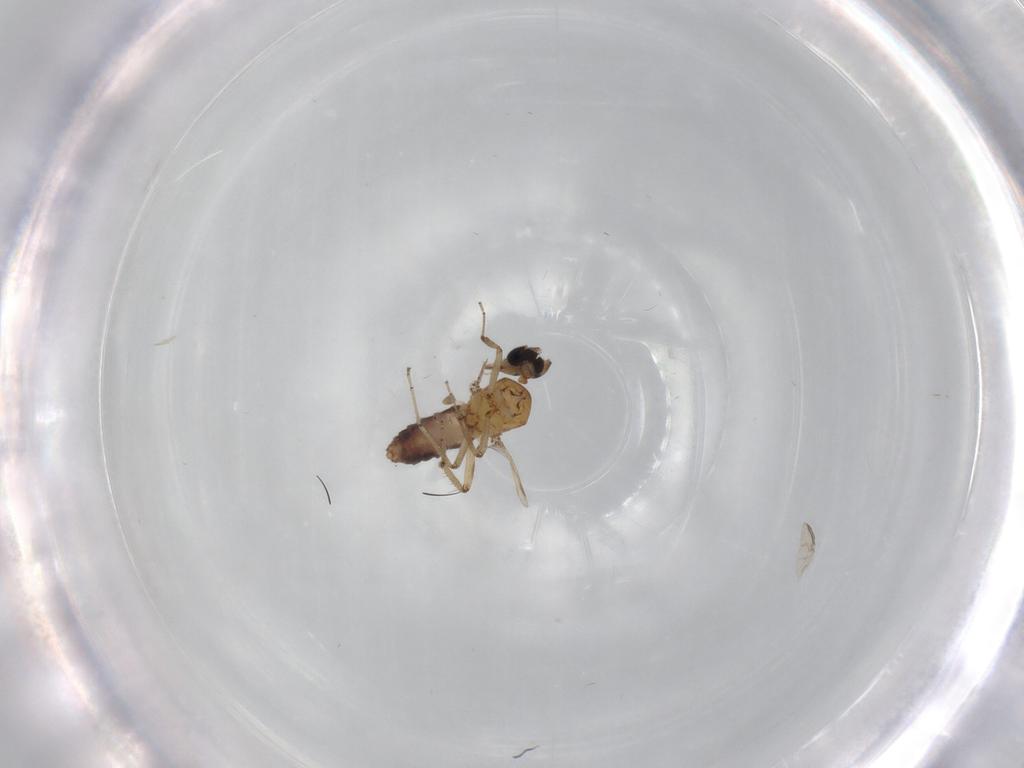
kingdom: Animalia
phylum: Arthropoda
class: Insecta
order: Diptera
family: Ceratopogonidae
